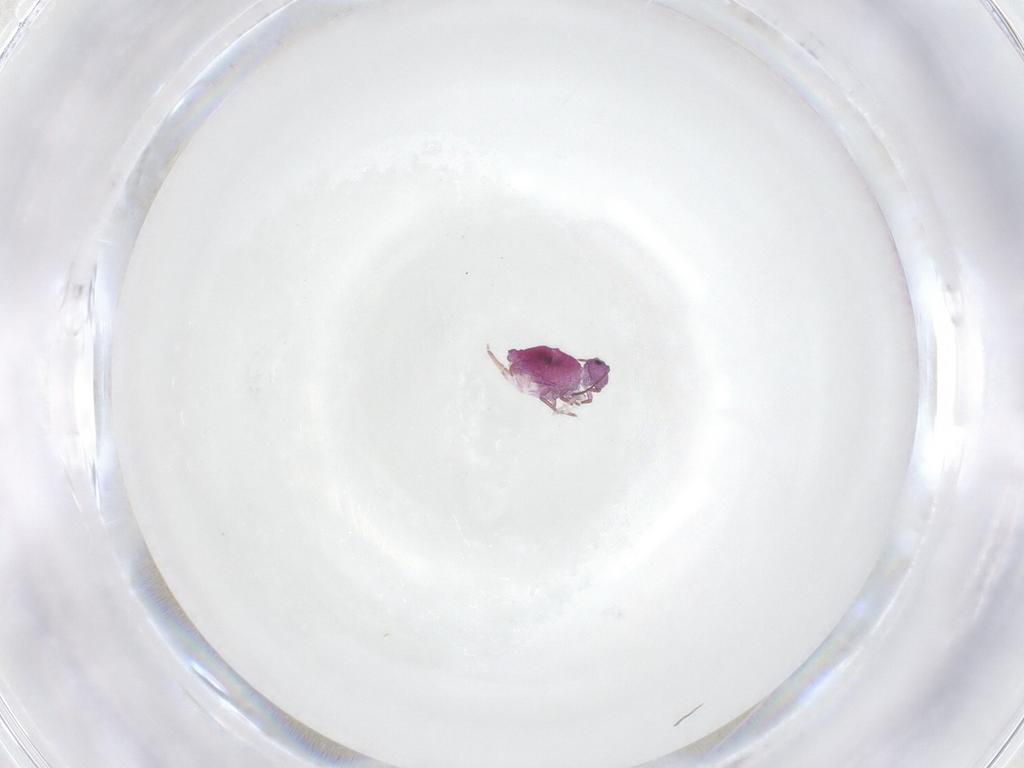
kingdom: Animalia
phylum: Arthropoda
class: Collembola
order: Symphypleona
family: Sminthuridae
